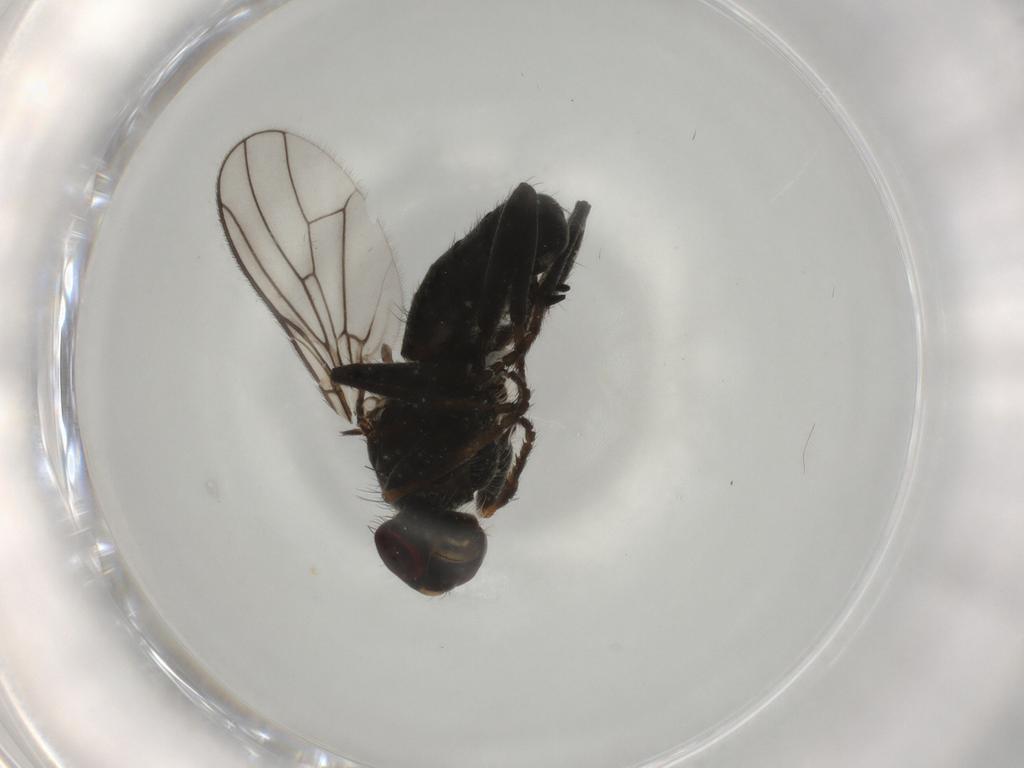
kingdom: Animalia
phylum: Arthropoda
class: Insecta
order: Diptera
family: Scathophagidae
